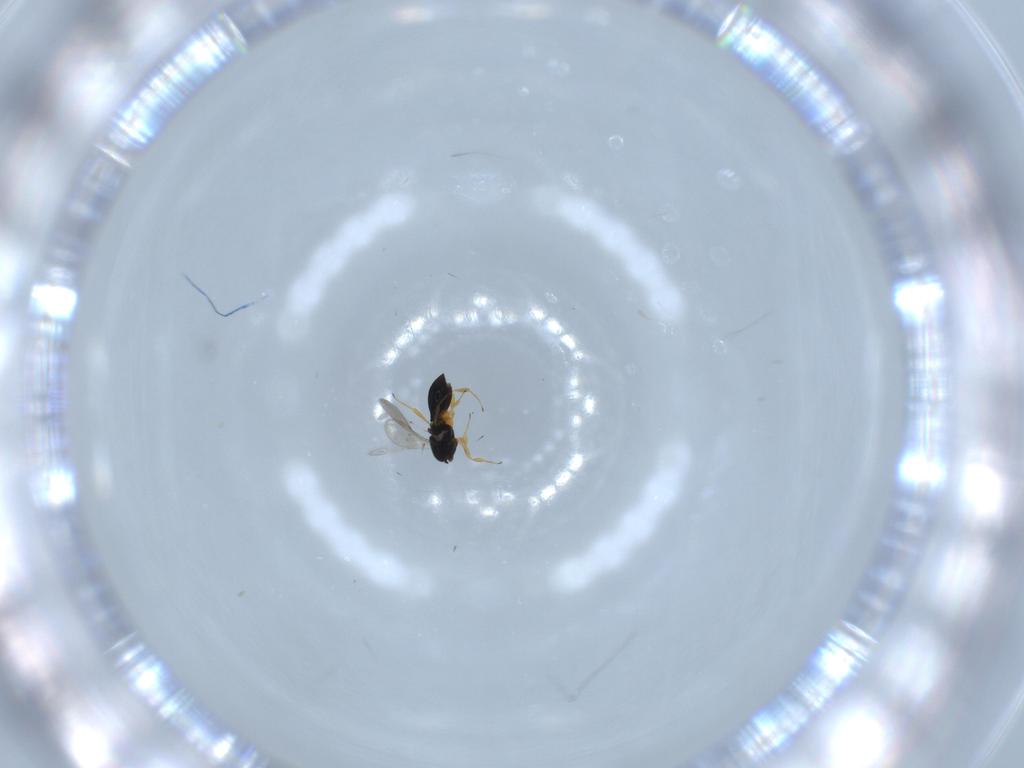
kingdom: Animalia
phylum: Arthropoda
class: Insecta
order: Hymenoptera
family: Scelionidae
